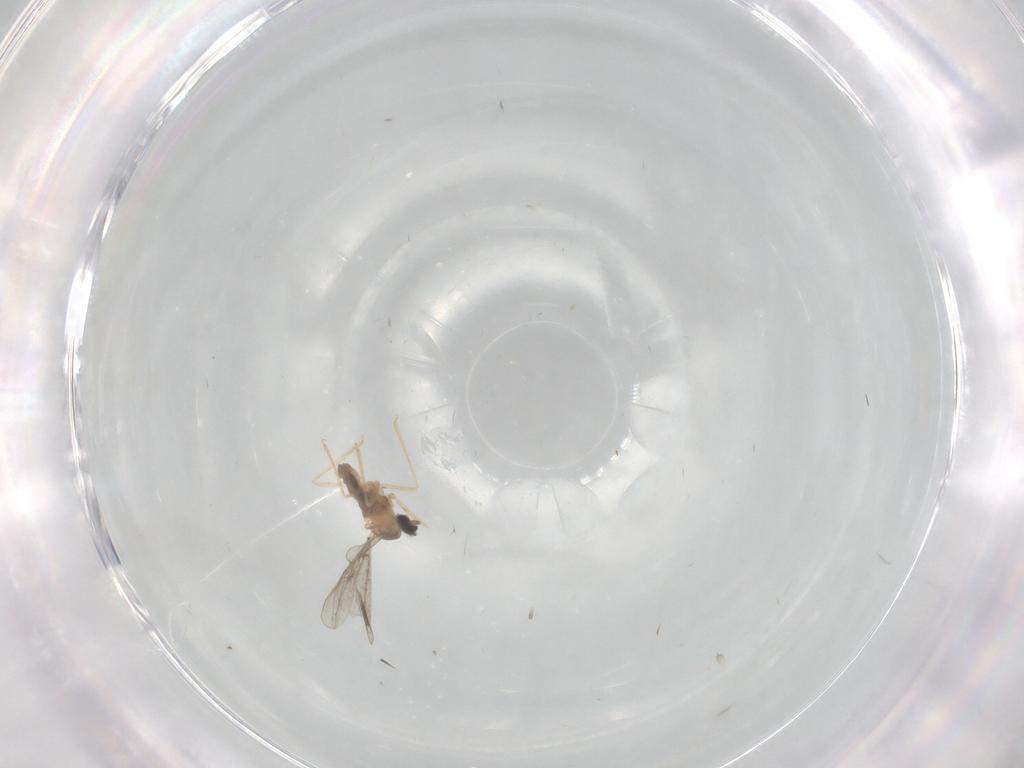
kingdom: Animalia
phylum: Arthropoda
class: Insecta
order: Diptera
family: Cecidomyiidae
